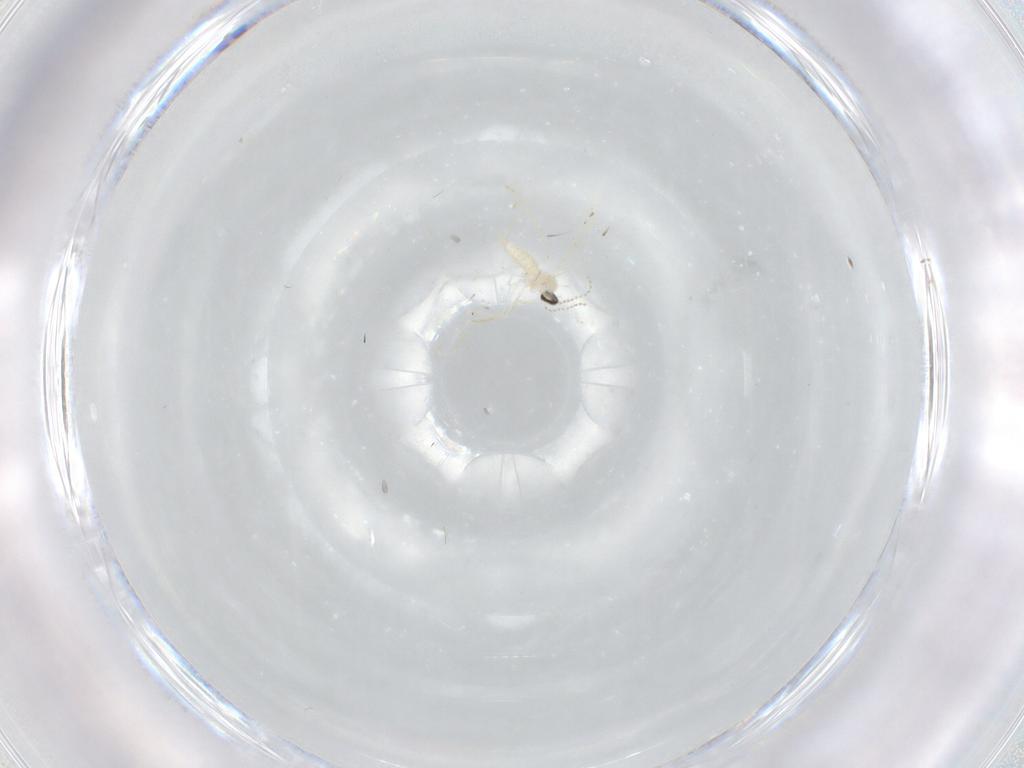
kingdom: Animalia
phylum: Arthropoda
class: Insecta
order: Diptera
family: Cecidomyiidae
